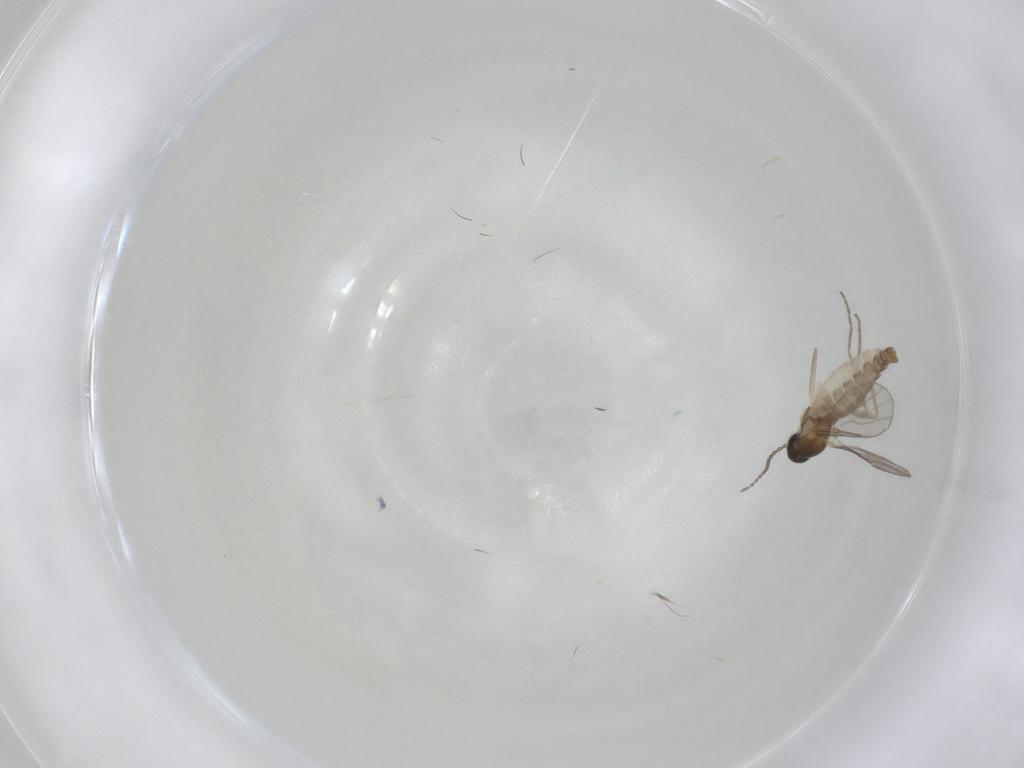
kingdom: Animalia
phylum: Arthropoda
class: Insecta
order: Diptera
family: Cecidomyiidae
